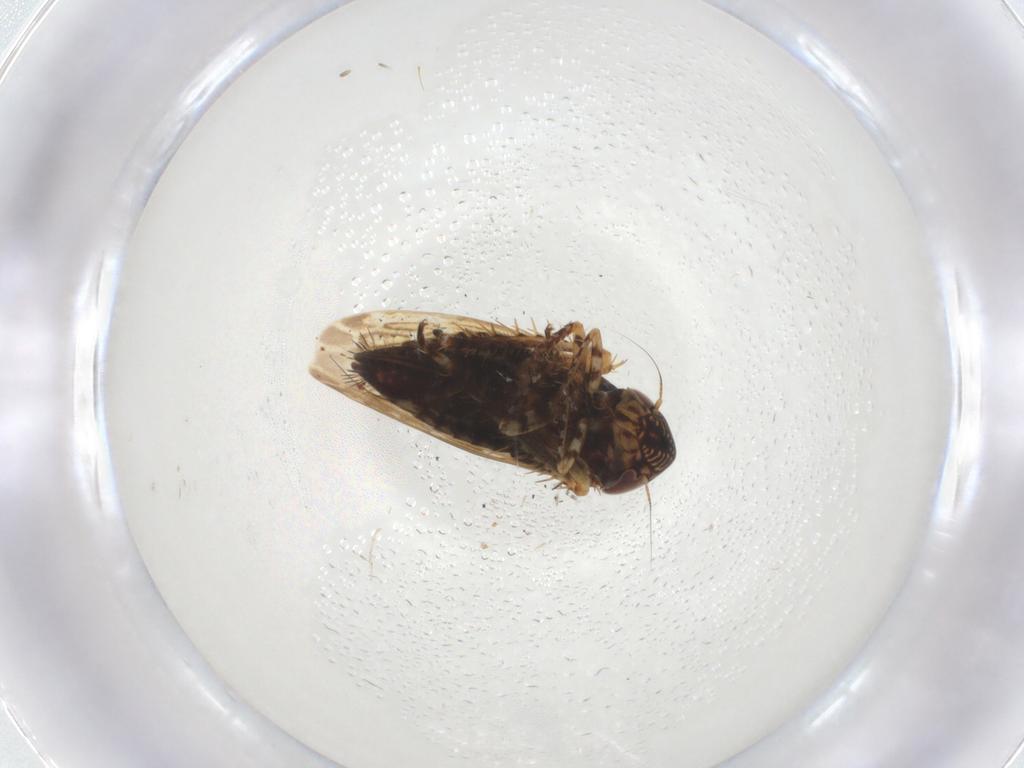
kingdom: Animalia
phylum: Arthropoda
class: Insecta
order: Hemiptera
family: Cicadellidae
